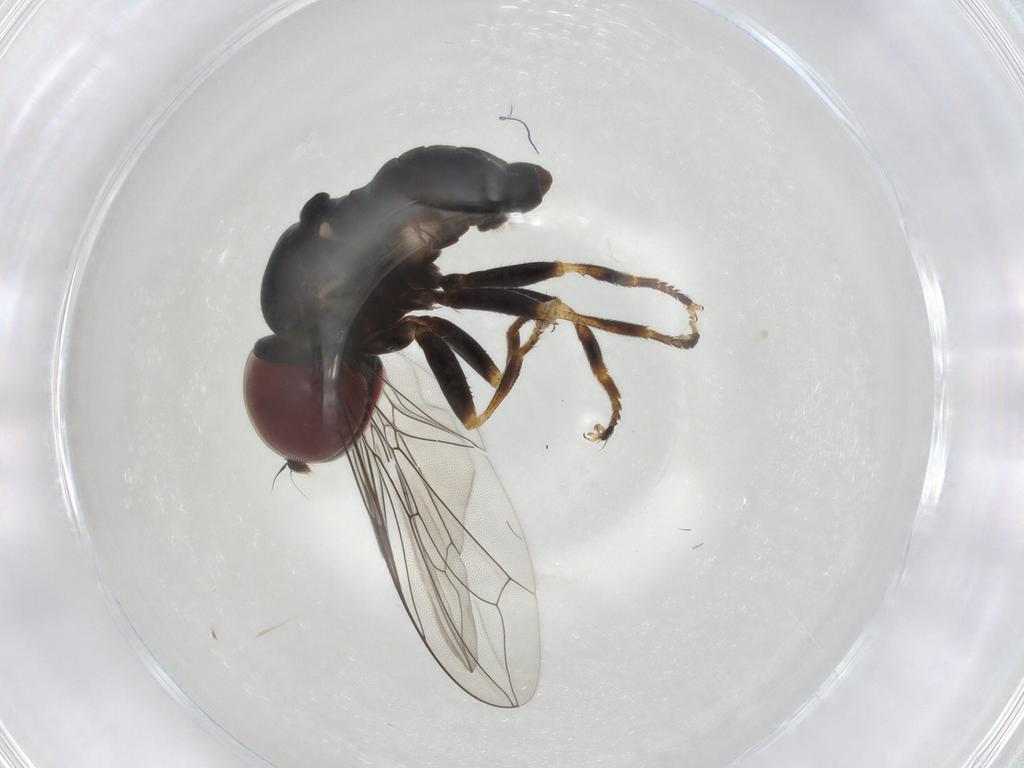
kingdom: Animalia
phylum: Arthropoda
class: Insecta
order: Diptera
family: Pipunculidae
